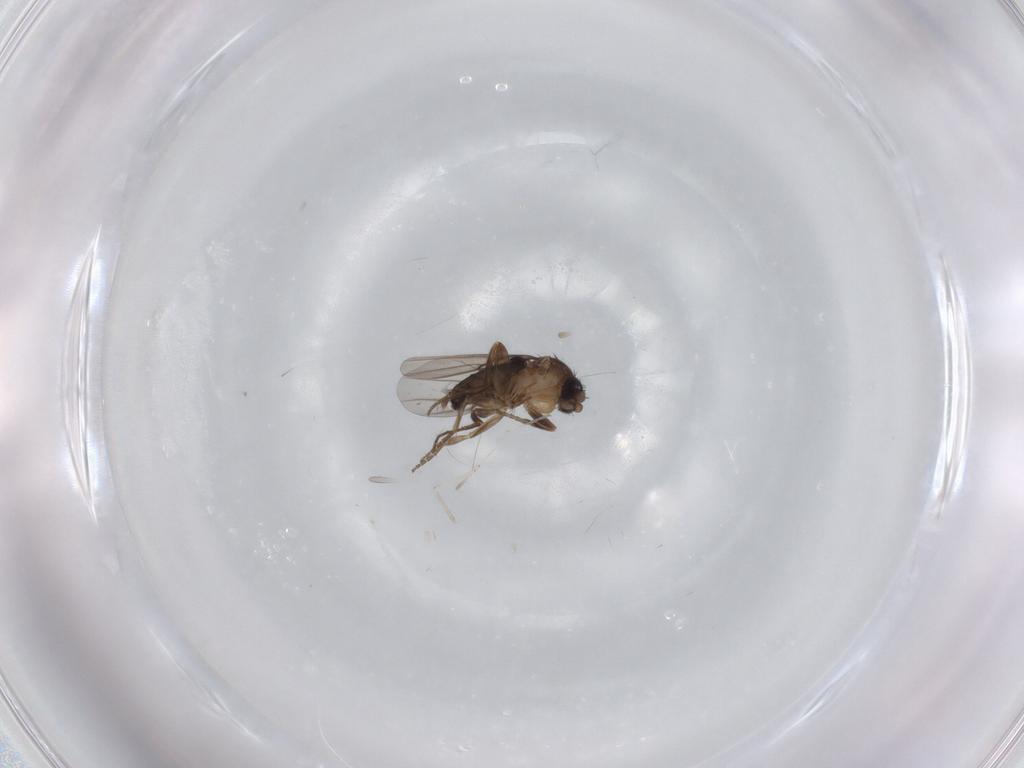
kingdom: Animalia
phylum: Arthropoda
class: Insecta
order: Diptera
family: Phoridae
